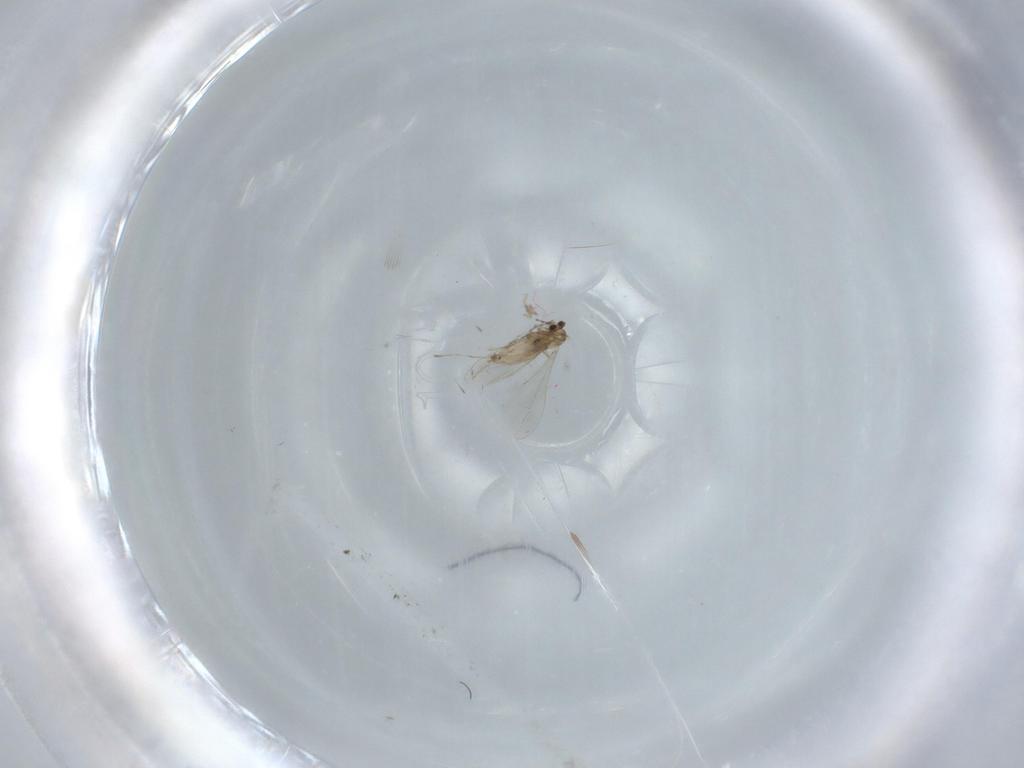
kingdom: Animalia
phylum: Arthropoda
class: Insecta
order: Diptera
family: Cecidomyiidae
